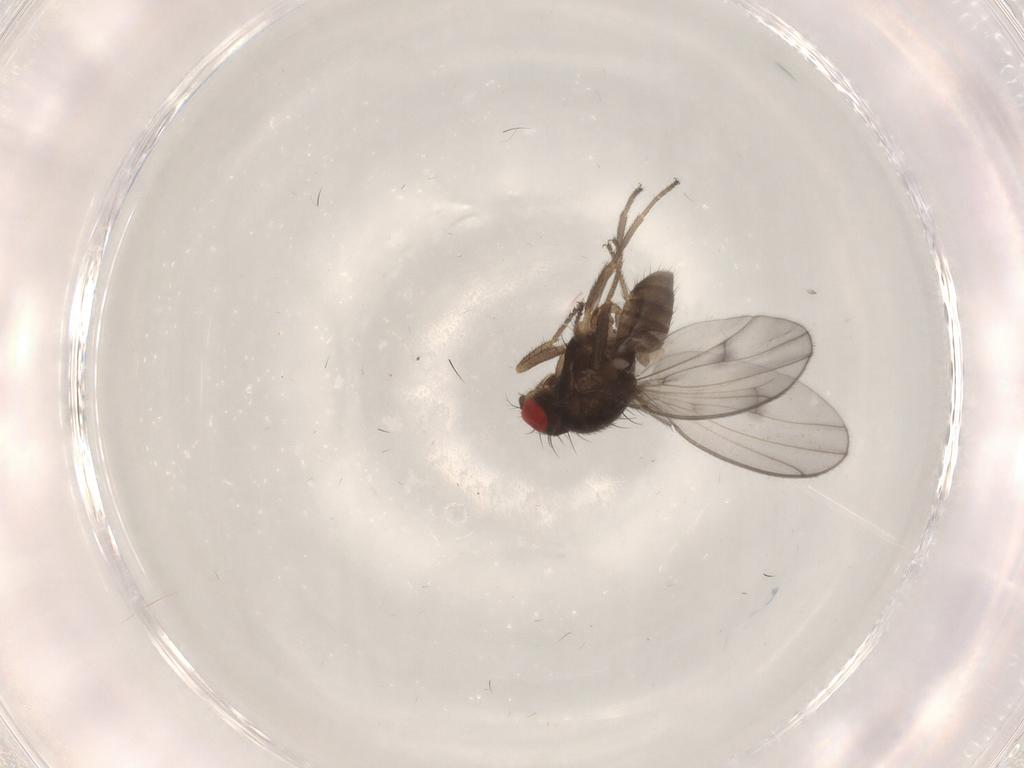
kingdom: Animalia
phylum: Arthropoda
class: Insecta
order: Diptera
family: Drosophilidae
